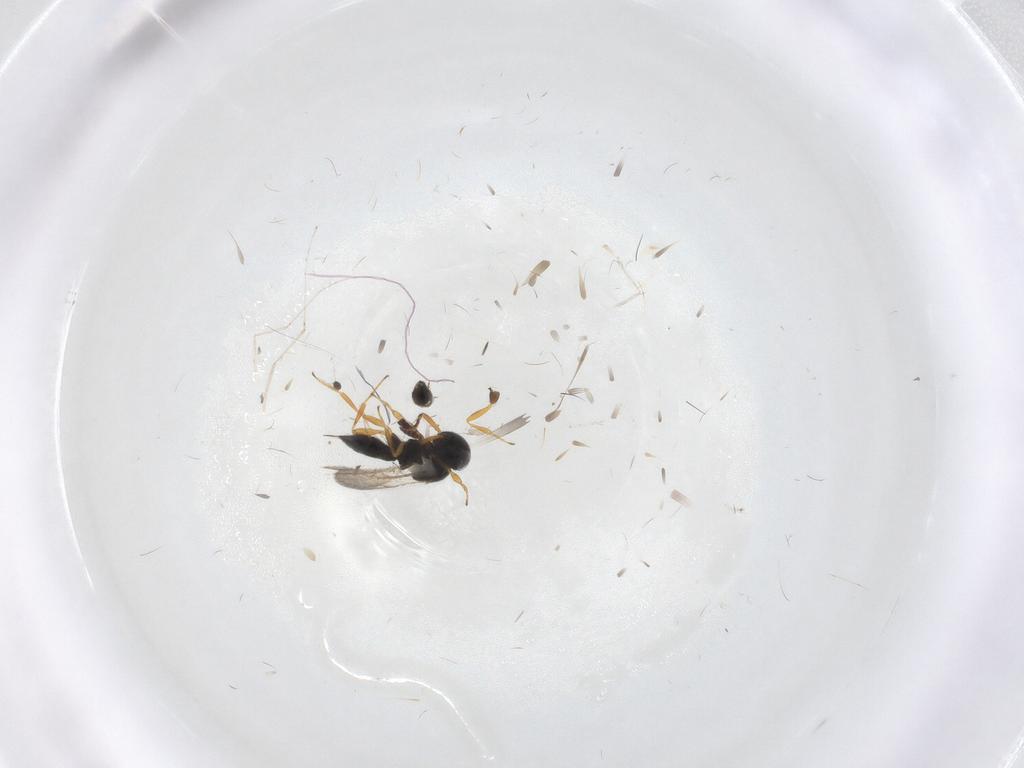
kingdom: Animalia
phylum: Arthropoda
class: Insecta
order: Hymenoptera
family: Scelionidae
